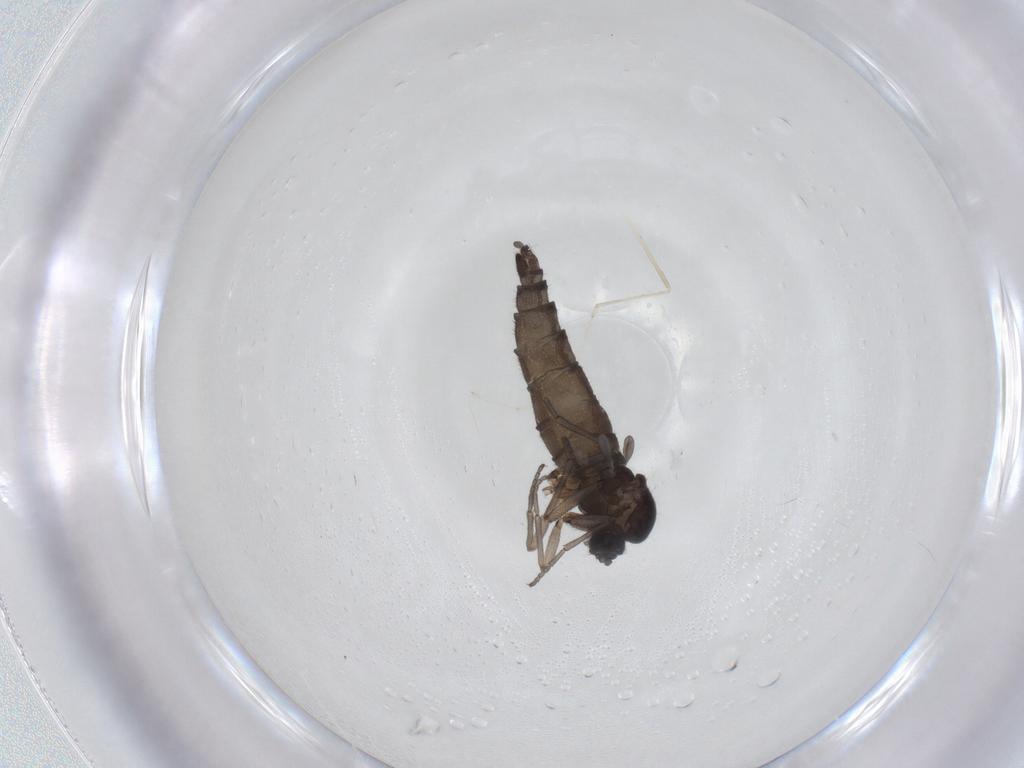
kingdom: Animalia
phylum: Arthropoda
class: Insecta
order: Diptera
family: Sciaridae
